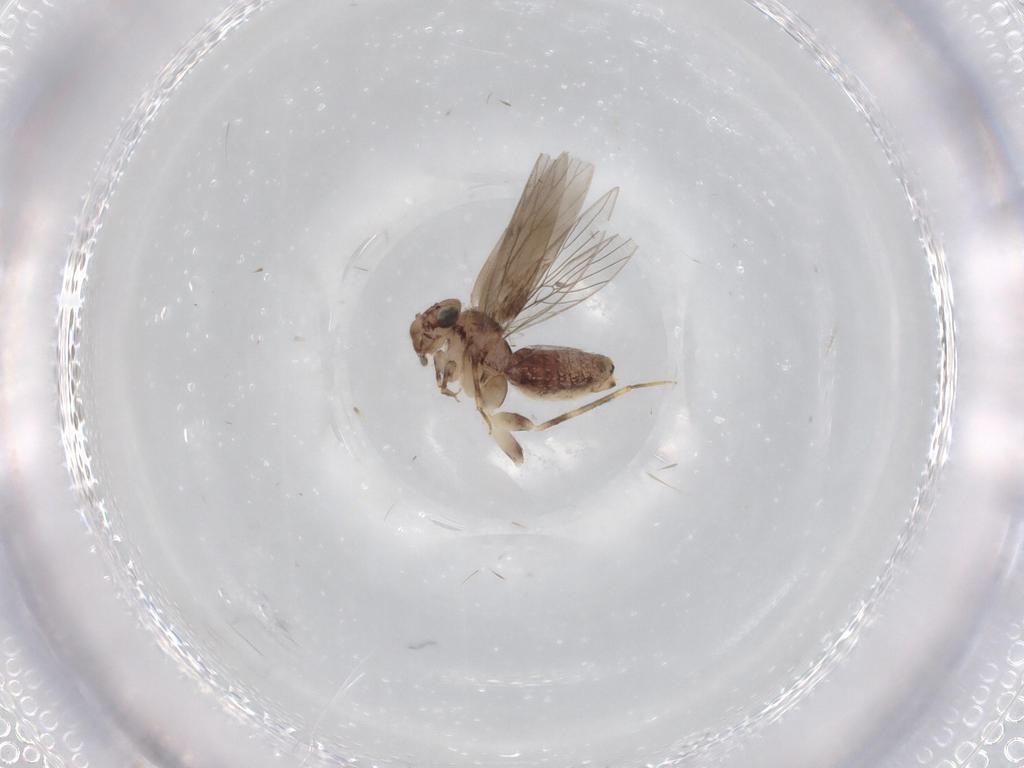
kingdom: Animalia
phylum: Arthropoda
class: Insecta
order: Psocodea
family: Lepidopsocidae
